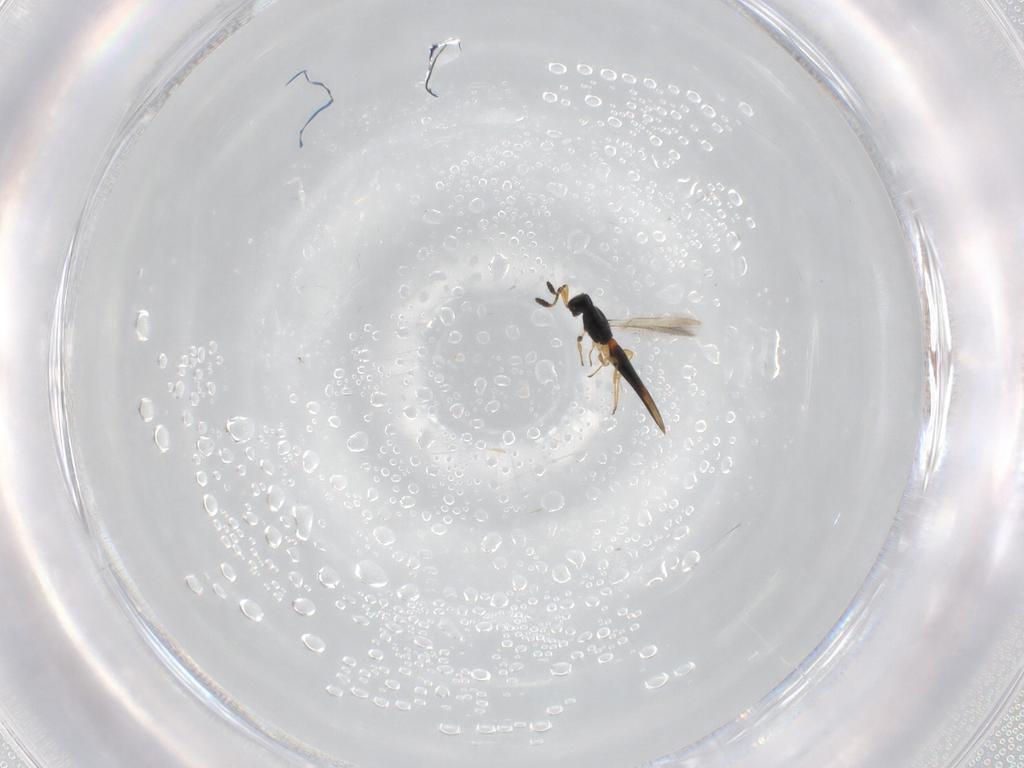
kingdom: Animalia
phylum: Arthropoda
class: Insecta
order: Hymenoptera
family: Scelionidae
